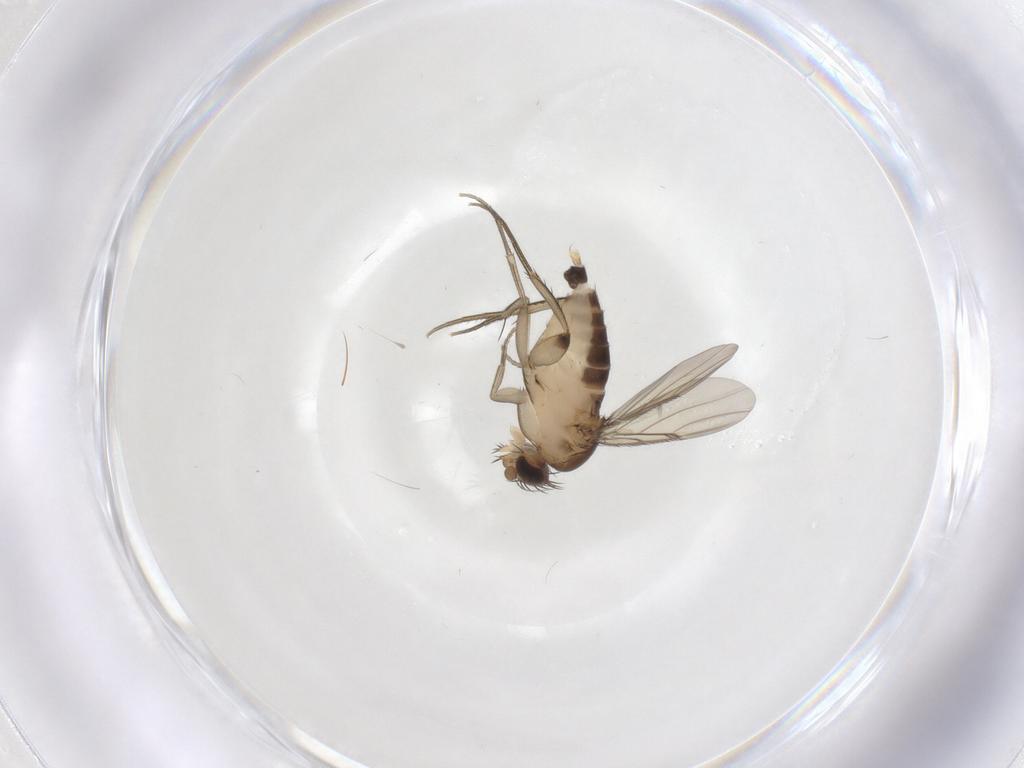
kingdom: Animalia
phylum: Arthropoda
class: Insecta
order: Diptera
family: Phoridae
